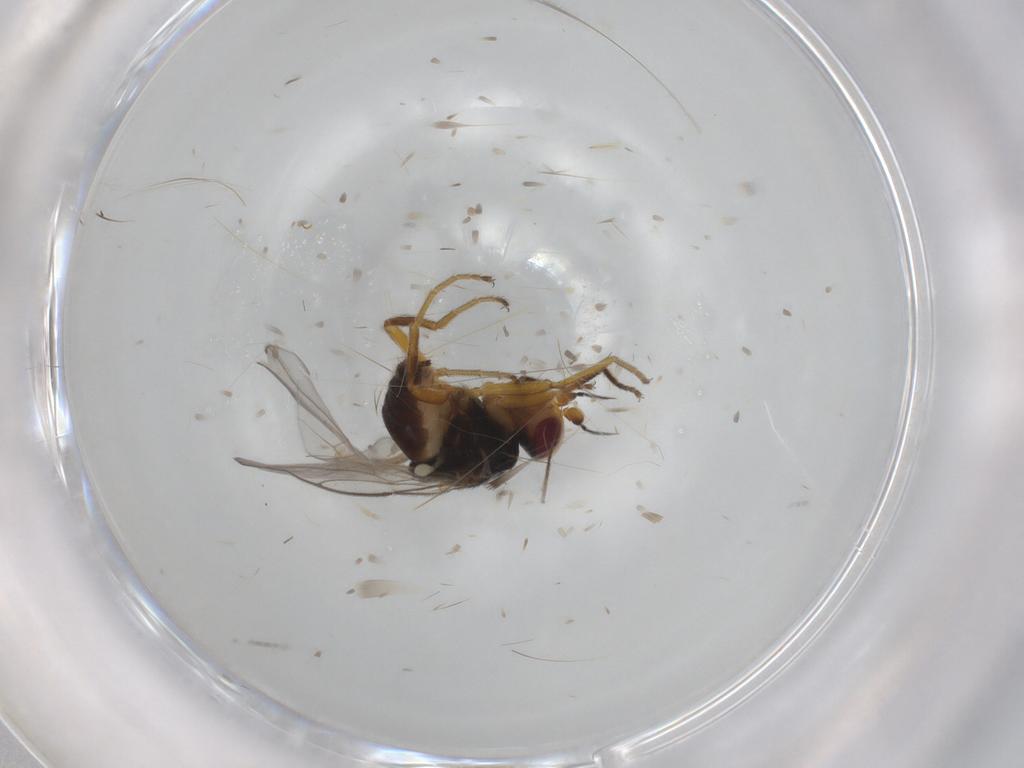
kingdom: Animalia
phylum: Arthropoda
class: Insecta
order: Diptera
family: Chloropidae
